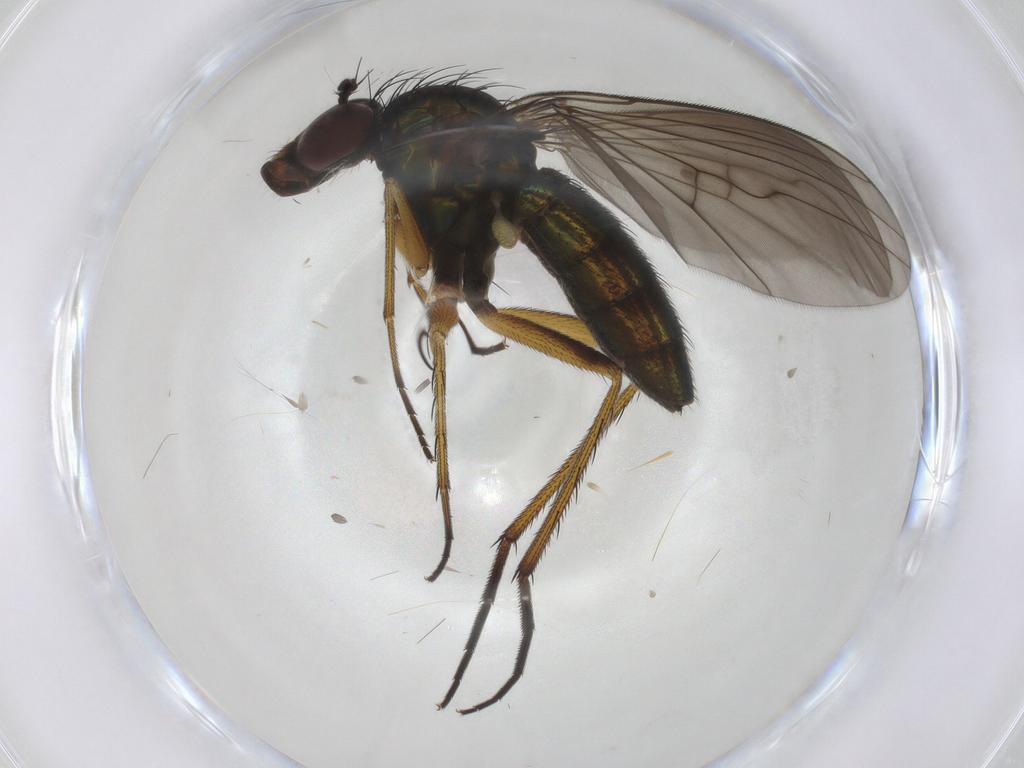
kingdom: Animalia
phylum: Arthropoda
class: Insecta
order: Diptera
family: Dolichopodidae
